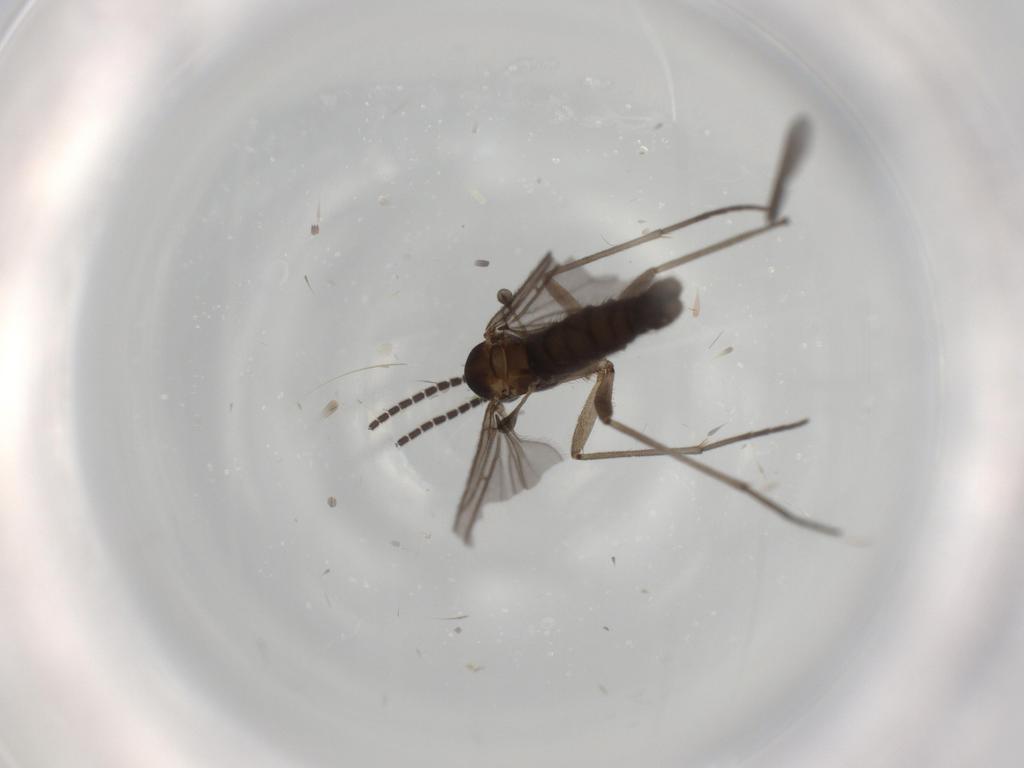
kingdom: Animalia
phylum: Arthropoda
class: Insecta
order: Diptera
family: Sciaridae
